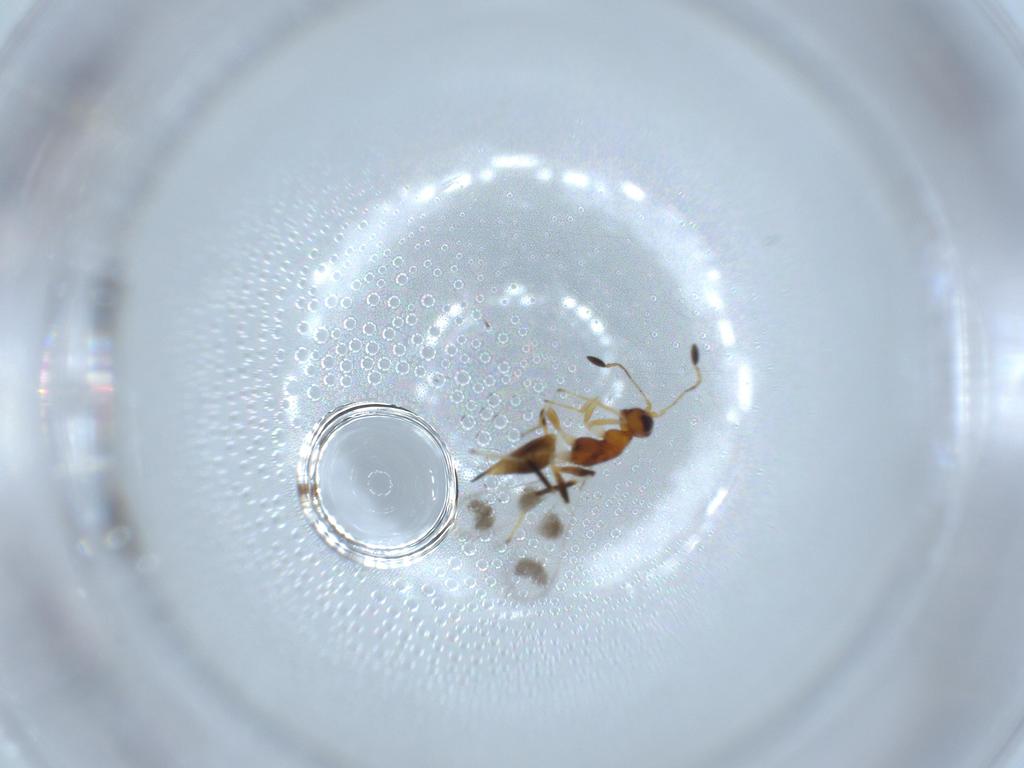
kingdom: Animalia
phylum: Arthropoda
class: Insecta
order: Hymenoptera
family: Mymaridae
